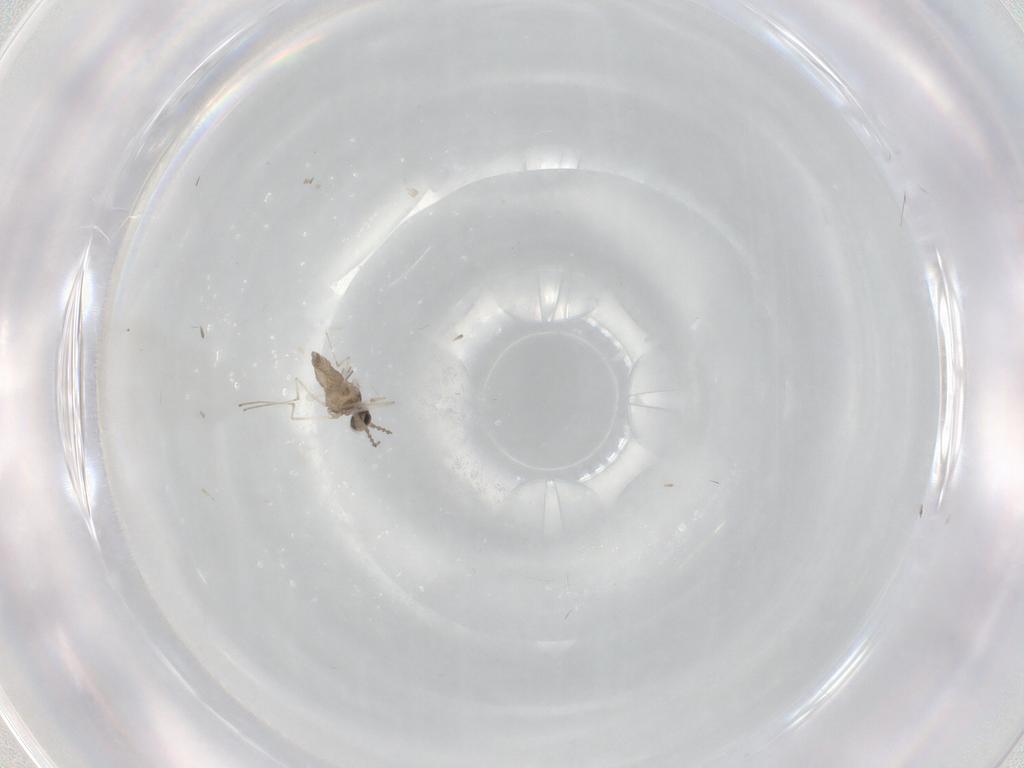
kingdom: Animalia
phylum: Arthropoda
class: Insecta
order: Diptera
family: Cecidomyiidae
